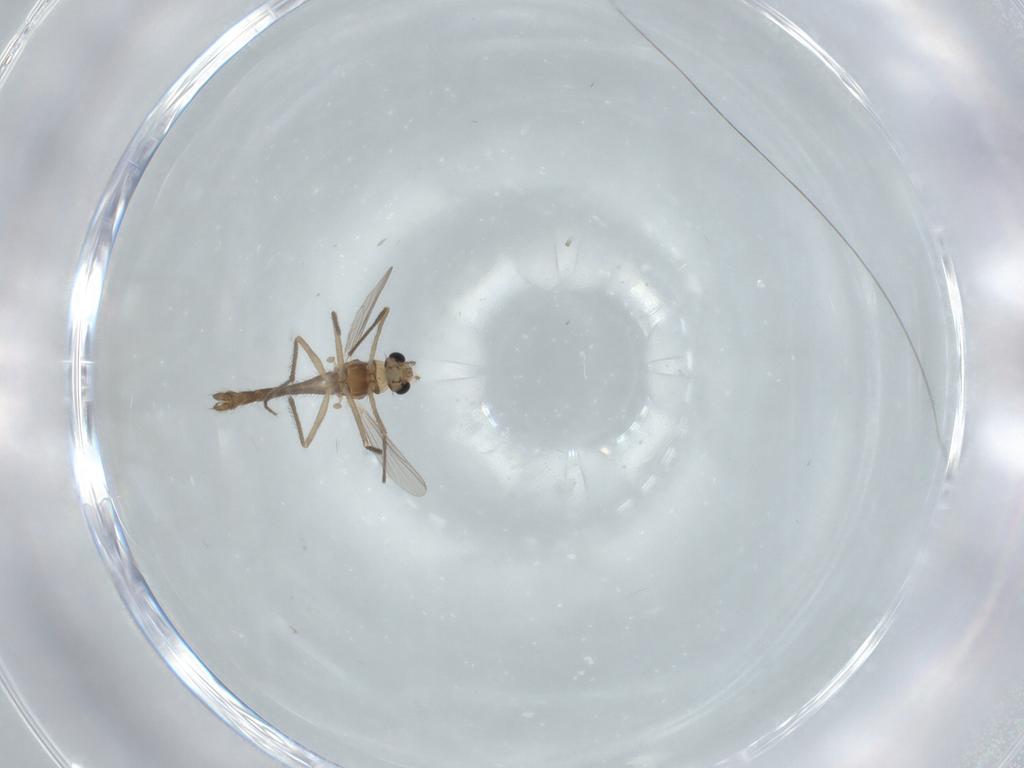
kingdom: Animalia
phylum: Arthropoda
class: Insecta
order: Diptera
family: Chironomidae
